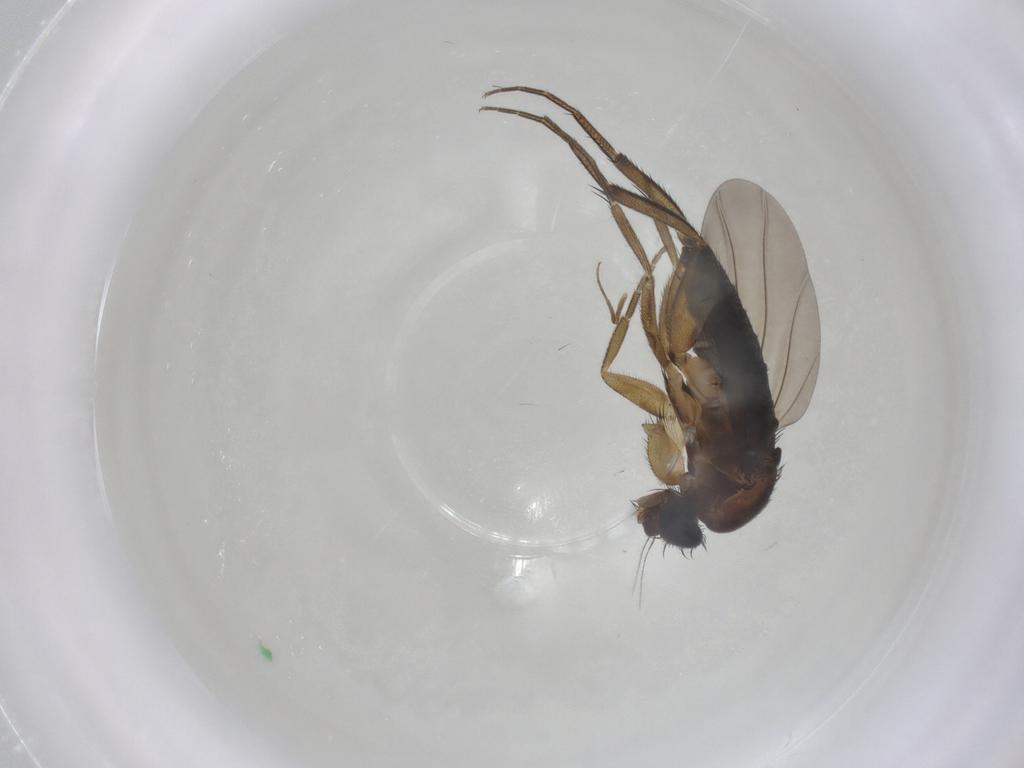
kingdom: Animalia
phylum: Arthropoda
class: Insecta
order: Diptera
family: Phoridae
